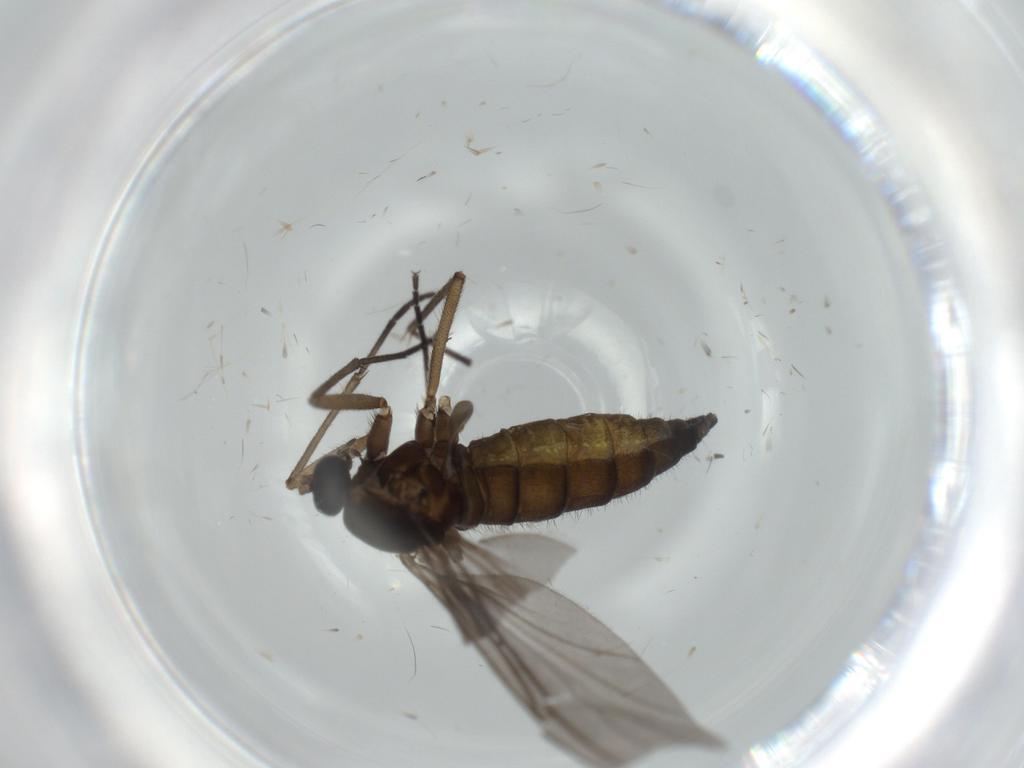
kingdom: Animalia
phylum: Arthropoda
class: Insecta
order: Diptera
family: Sciaridae
